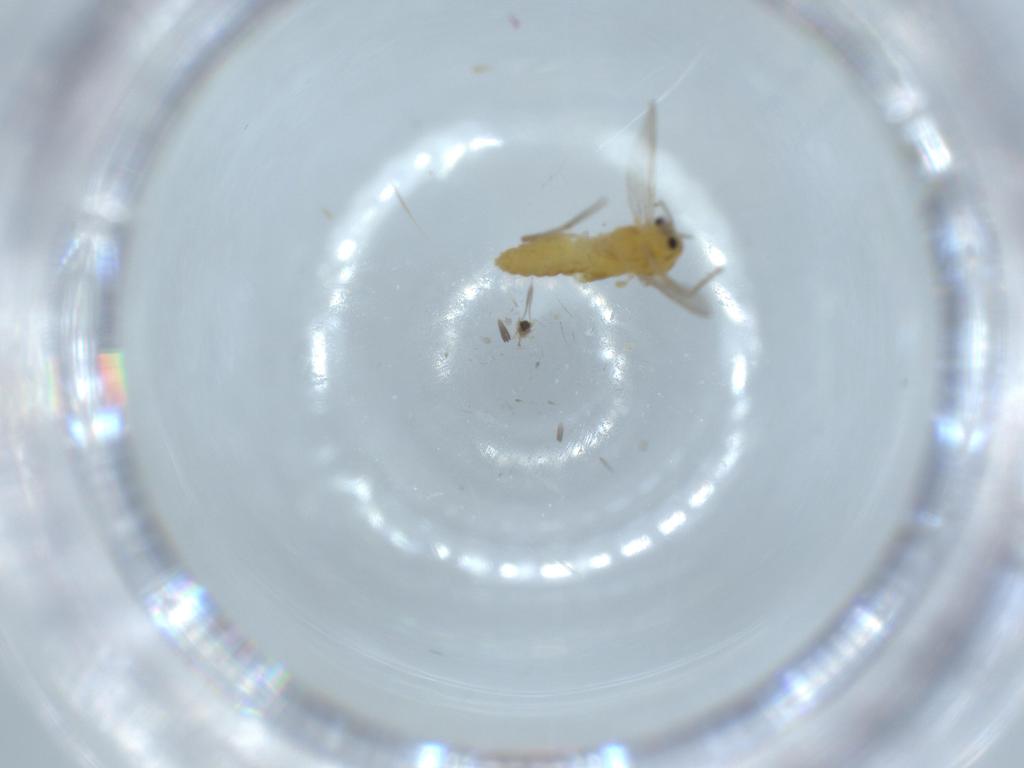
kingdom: Animalia
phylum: Arthropoda
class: Insecta
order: Diptera
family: Chironomidae
